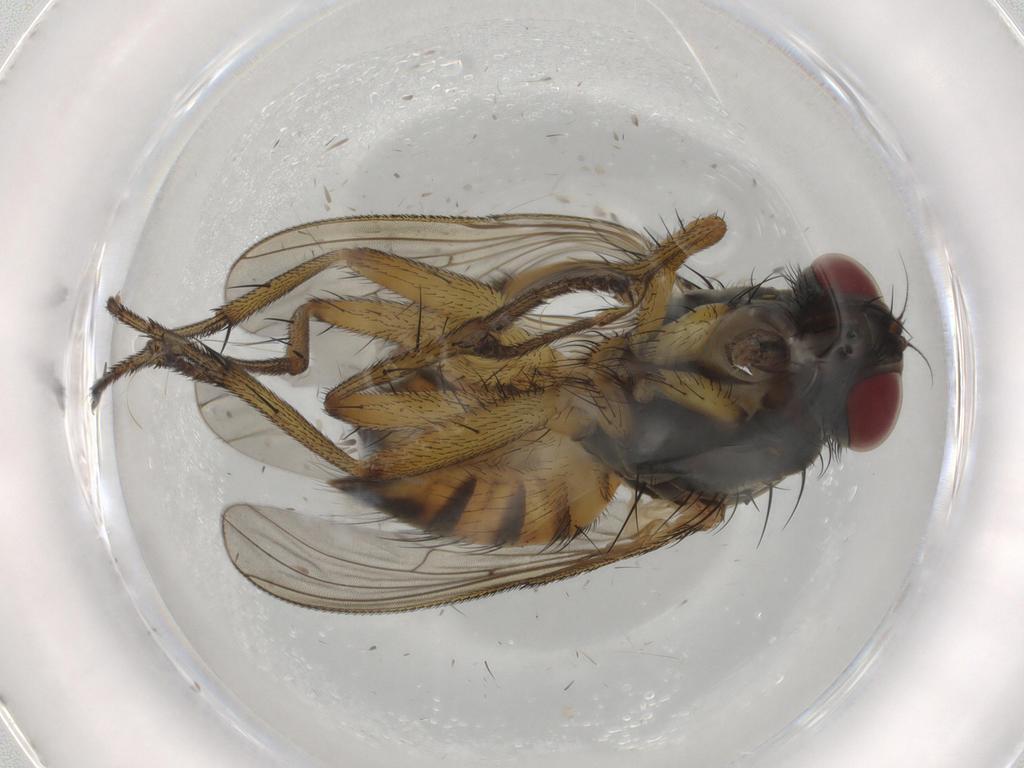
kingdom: Animalia
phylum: Arthropoda
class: Insecta
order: Diptera
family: Muscidae
